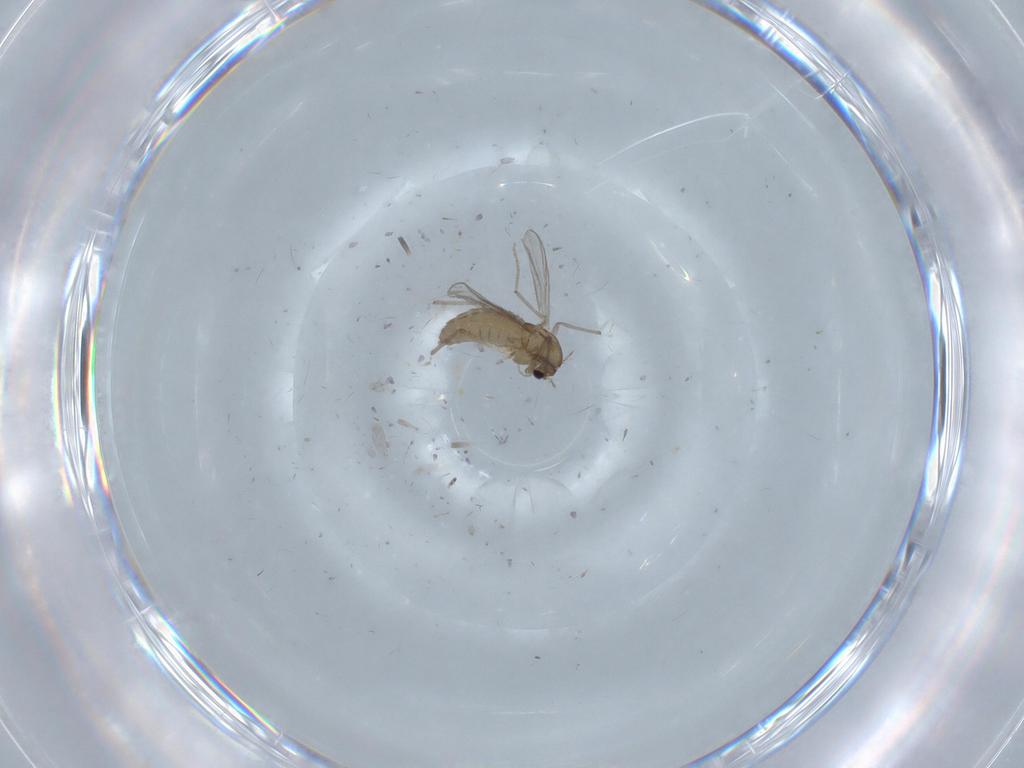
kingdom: Animalia
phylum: Arthropoda
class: Insecta
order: Diptera
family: Chironomidae
